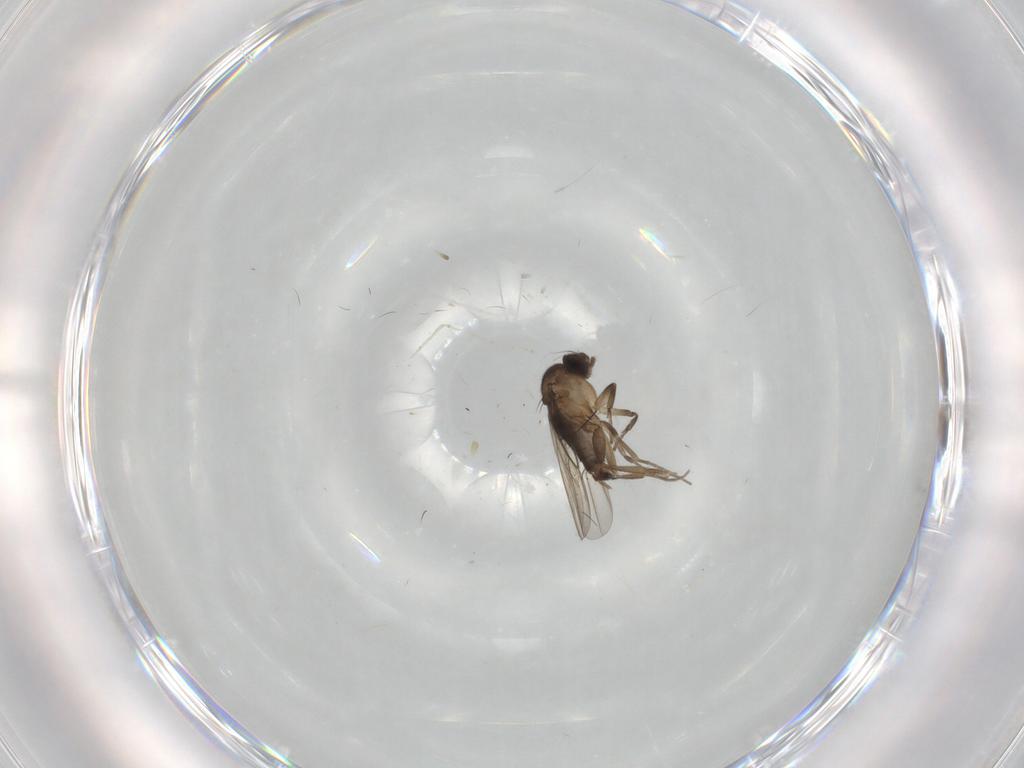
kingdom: Animalia
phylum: Arthropoda
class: Insecta
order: Diptera
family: Phoridae
